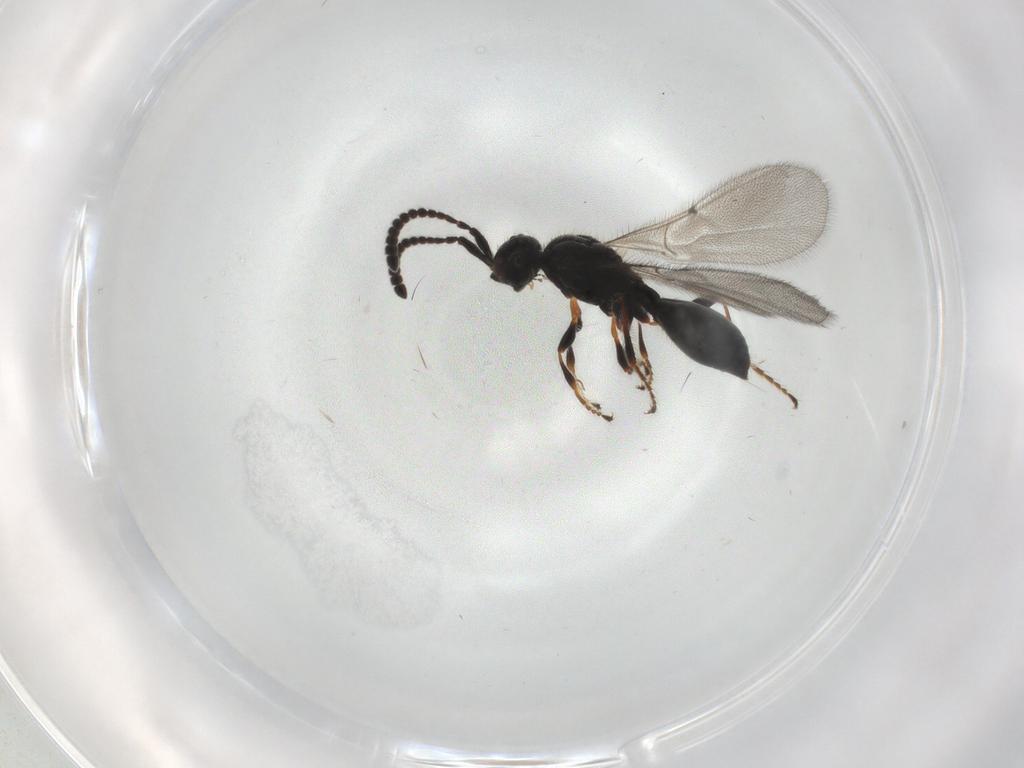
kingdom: Animalia
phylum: Arthropoda
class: Insecta
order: Hymenoptera
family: Diapriidae
